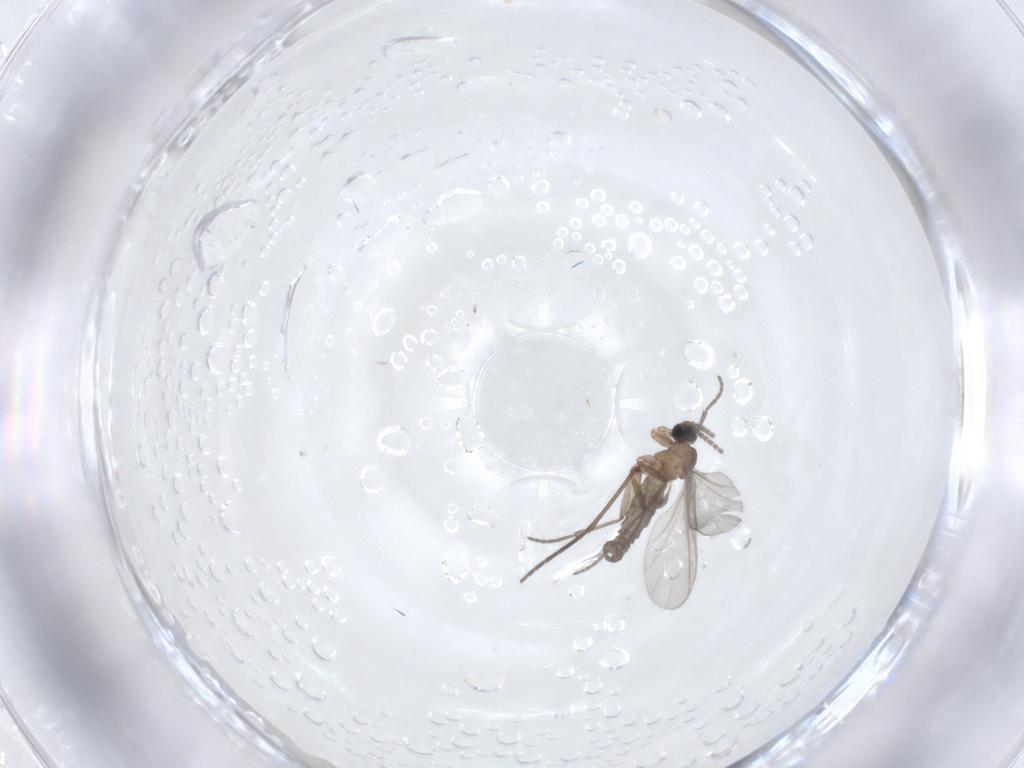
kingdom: Animalia
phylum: Arthropoda
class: Insecta
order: Diptera
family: Sciaridae
